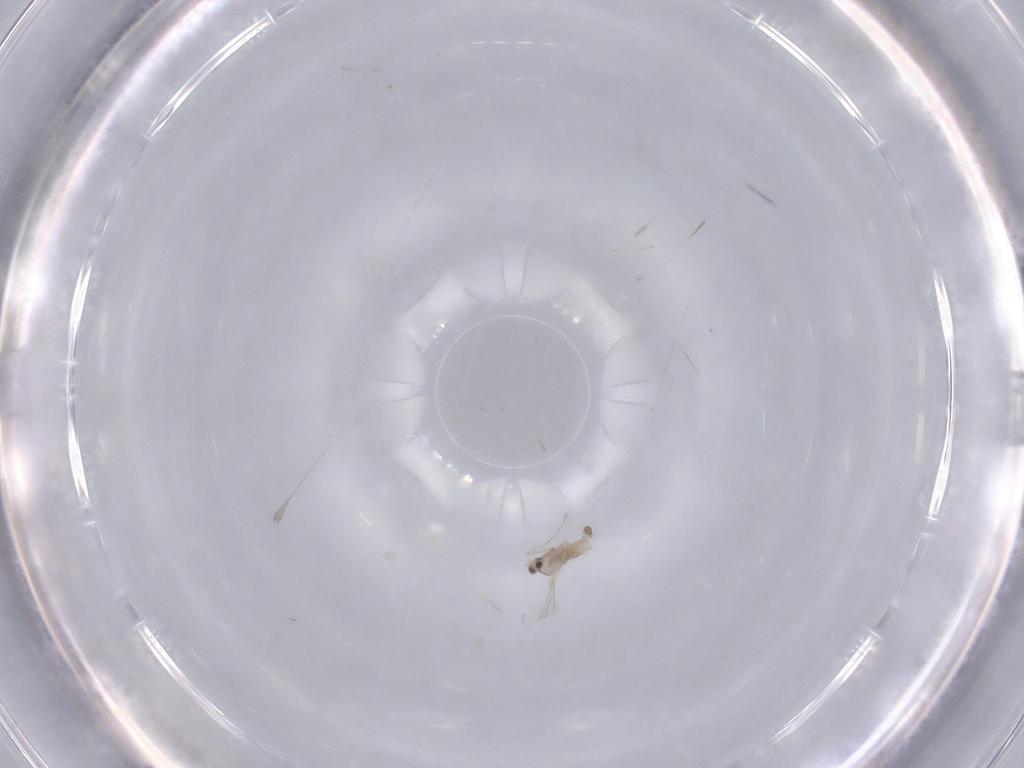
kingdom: Animalia
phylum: Arthropoda
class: Insecta
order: Diptera
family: Cecidomyiidae
